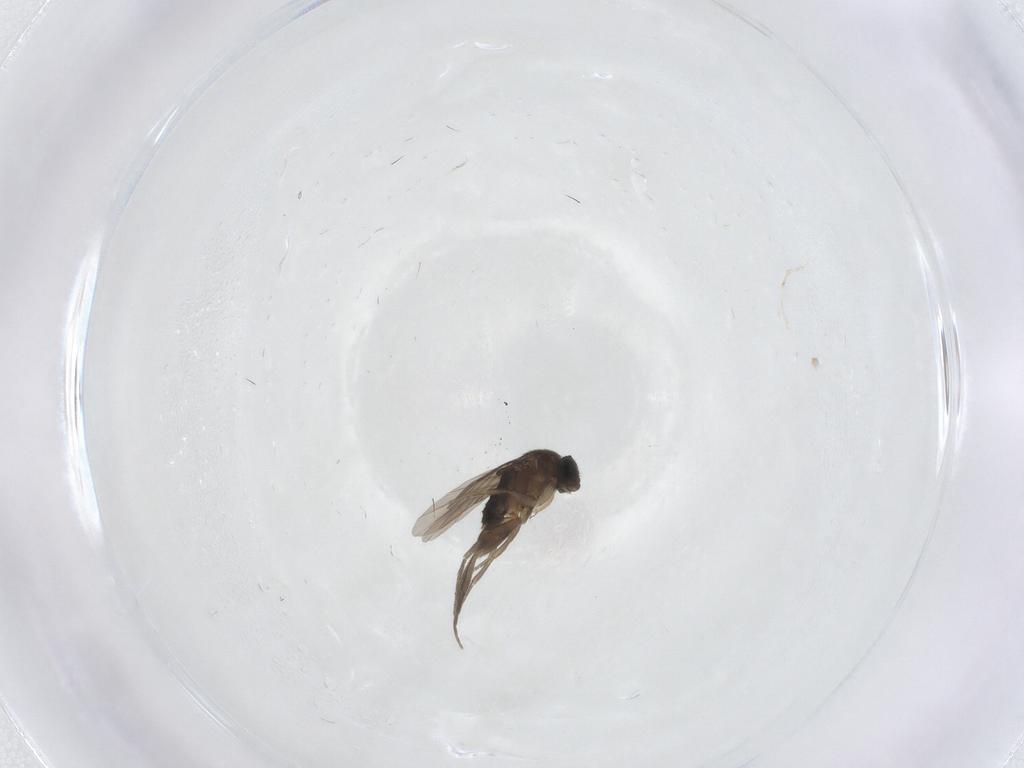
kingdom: Animalia
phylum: Arthropoda
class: Insecta
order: Diptera
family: Phoridae
